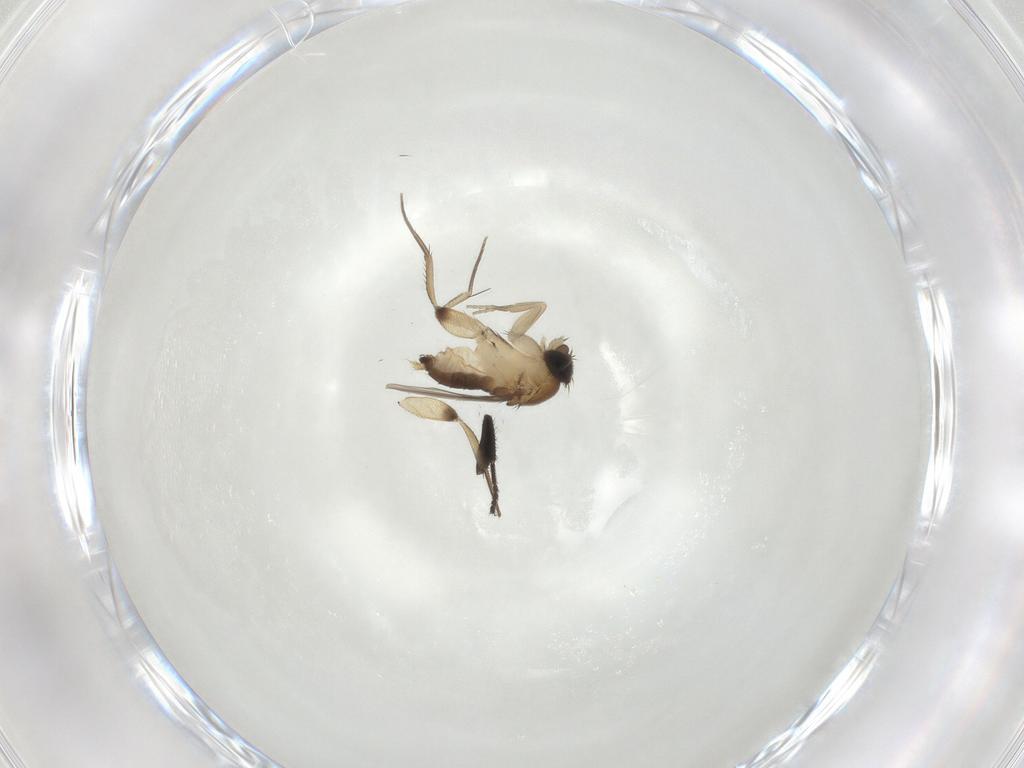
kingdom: Animalia
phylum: Arthropoda
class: Insecta
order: Diptera
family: Phoridae
